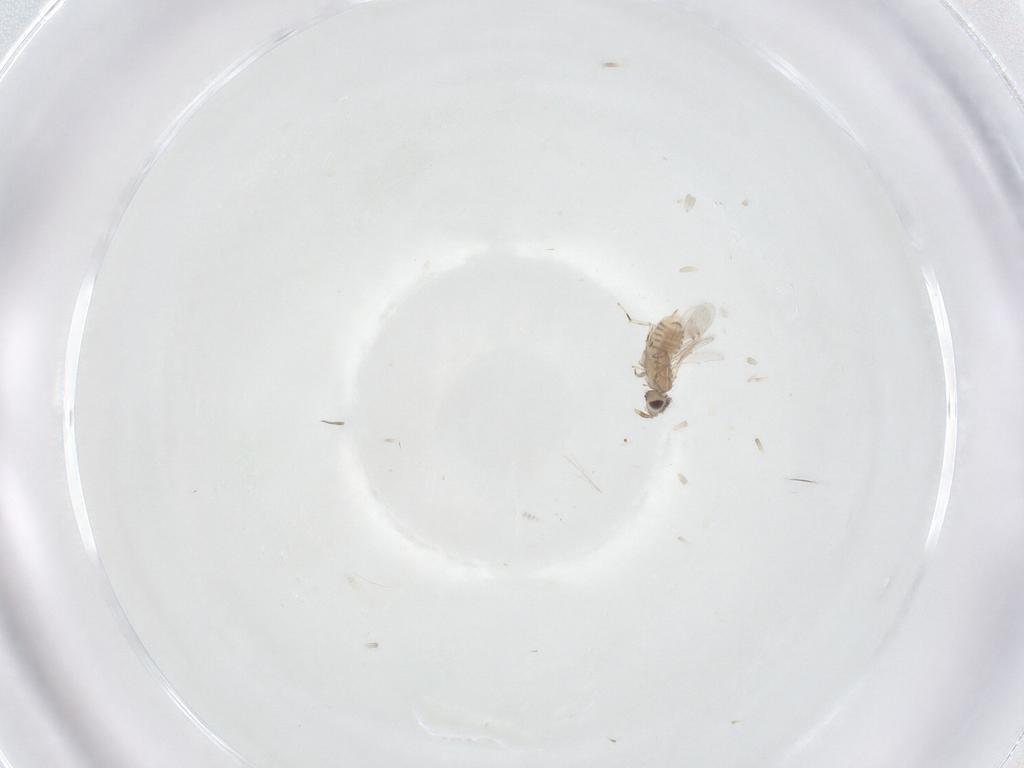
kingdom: Animalia
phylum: Arthropoda
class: Insecta
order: Hymenoptera
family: Aphelinidae
